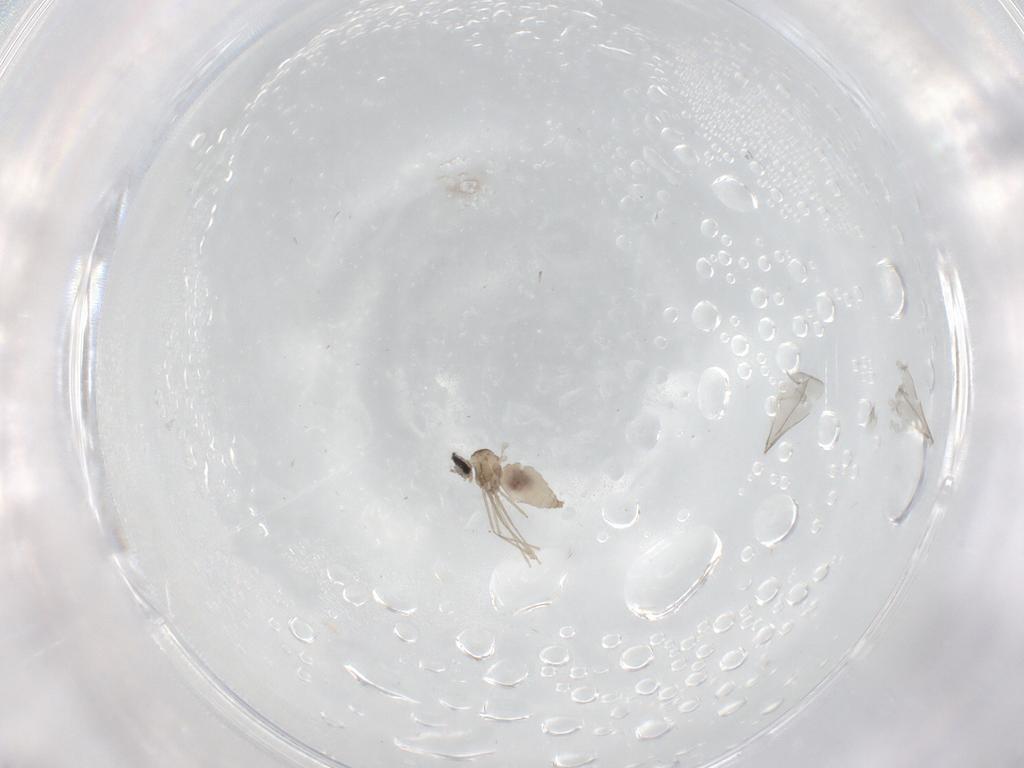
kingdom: Animalia
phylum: Arthropoda
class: Insecta
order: Diptera
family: Cecidomyiidae
